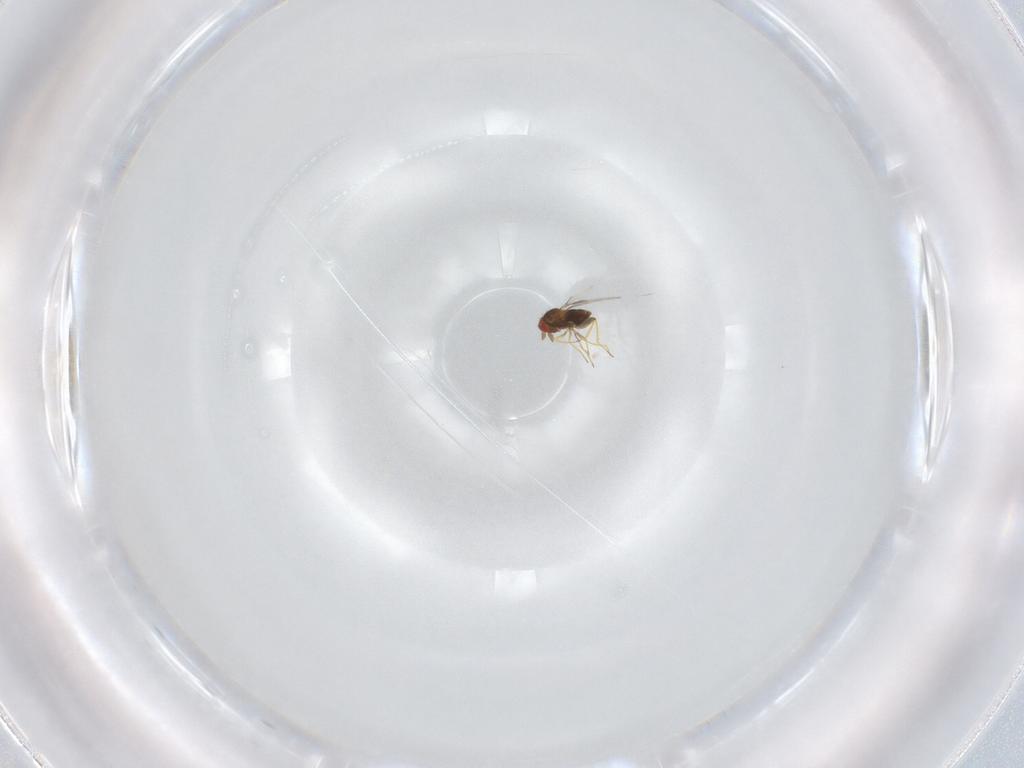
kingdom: Animalia
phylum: Arthropoda
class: Insecta
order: Hymenoptera
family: Trichogrammatidae
